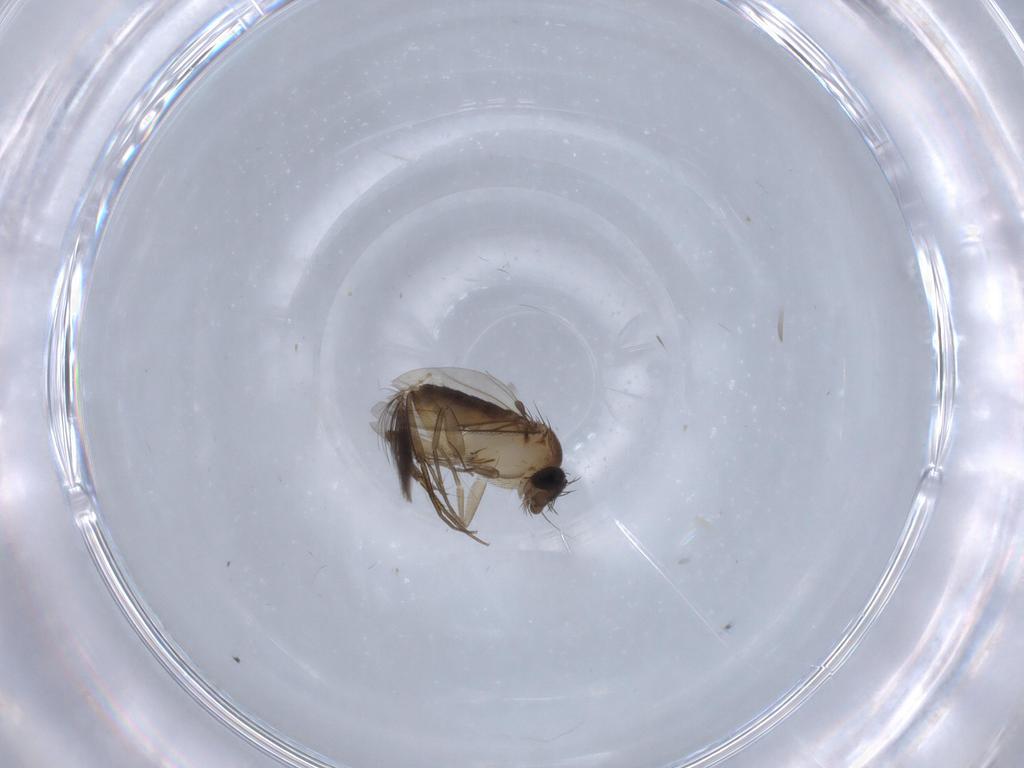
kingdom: Animalia
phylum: Arthropoda
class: Insecta
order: Diptera
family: Phoridae
